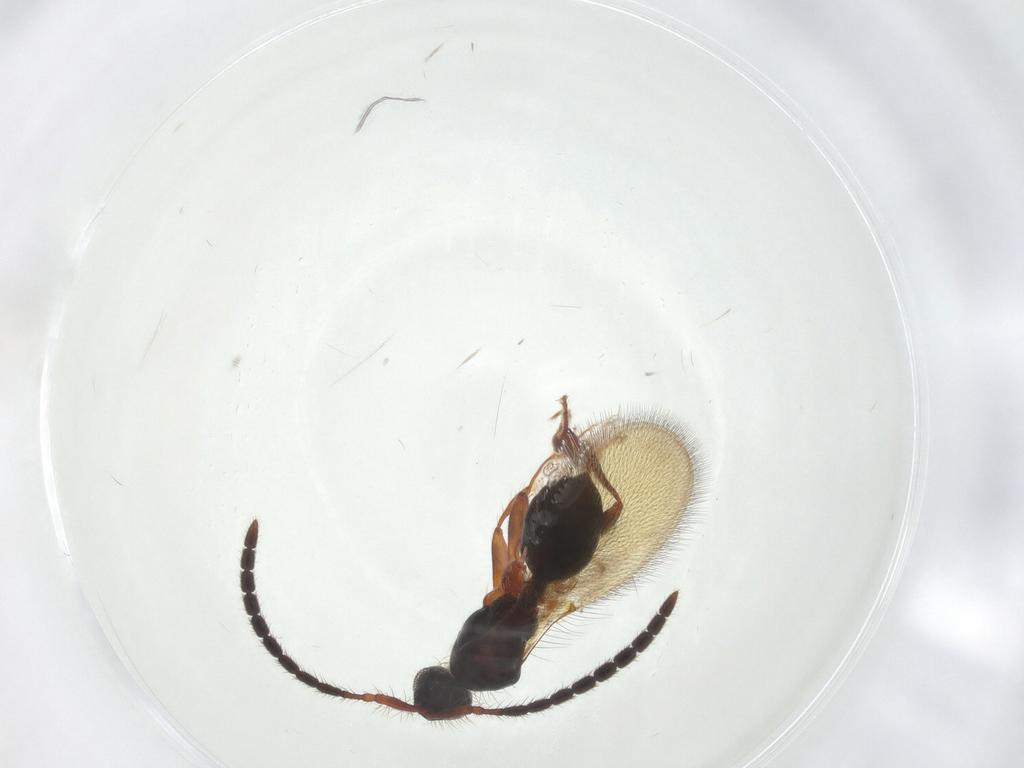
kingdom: Animalia
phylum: Arthropoda
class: Insecta
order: Hymenoptera
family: Diapriidae
